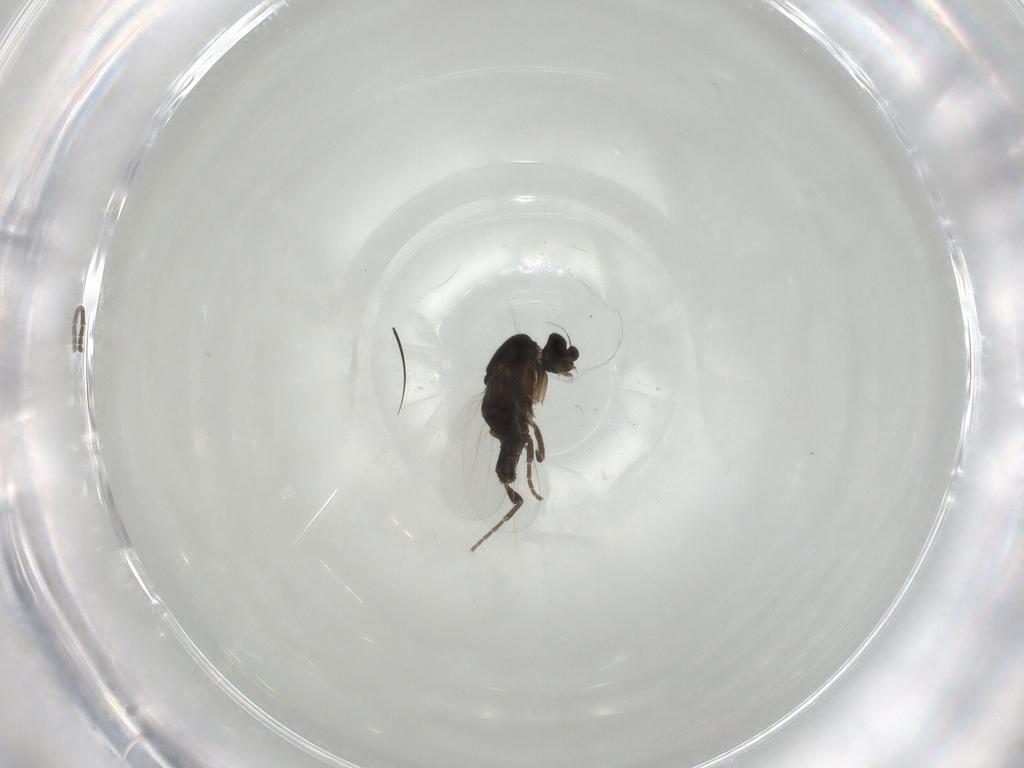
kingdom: Animalia
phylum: Arthropoda
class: Insecta
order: Diptera
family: Phoridae
